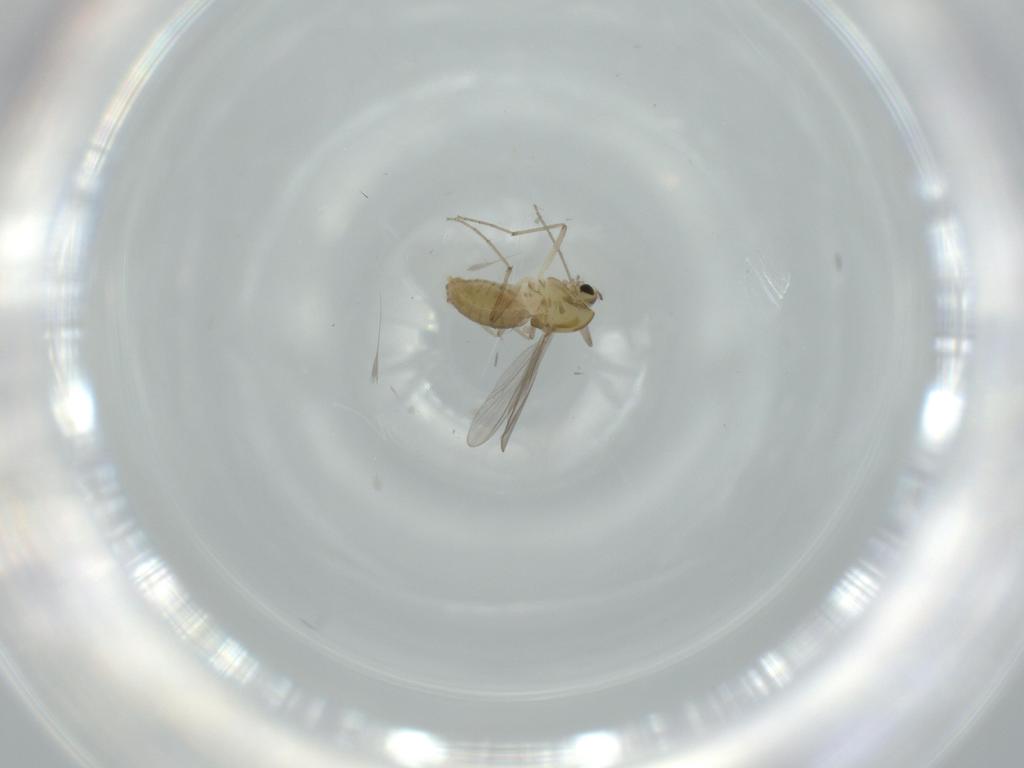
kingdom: Animalia
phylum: Arthropoda
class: Insecta
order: Diptera
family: Chironomidae
